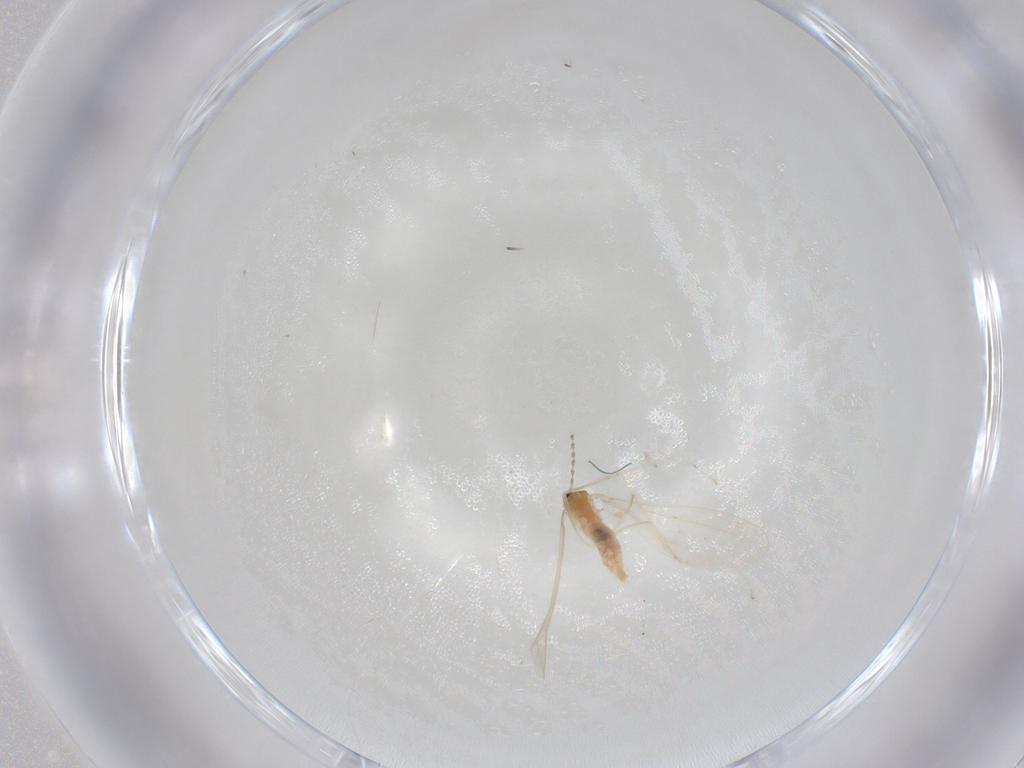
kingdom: Animalia
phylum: Arthropoda
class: Insecta
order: Diptera
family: Cecidomyiidae
